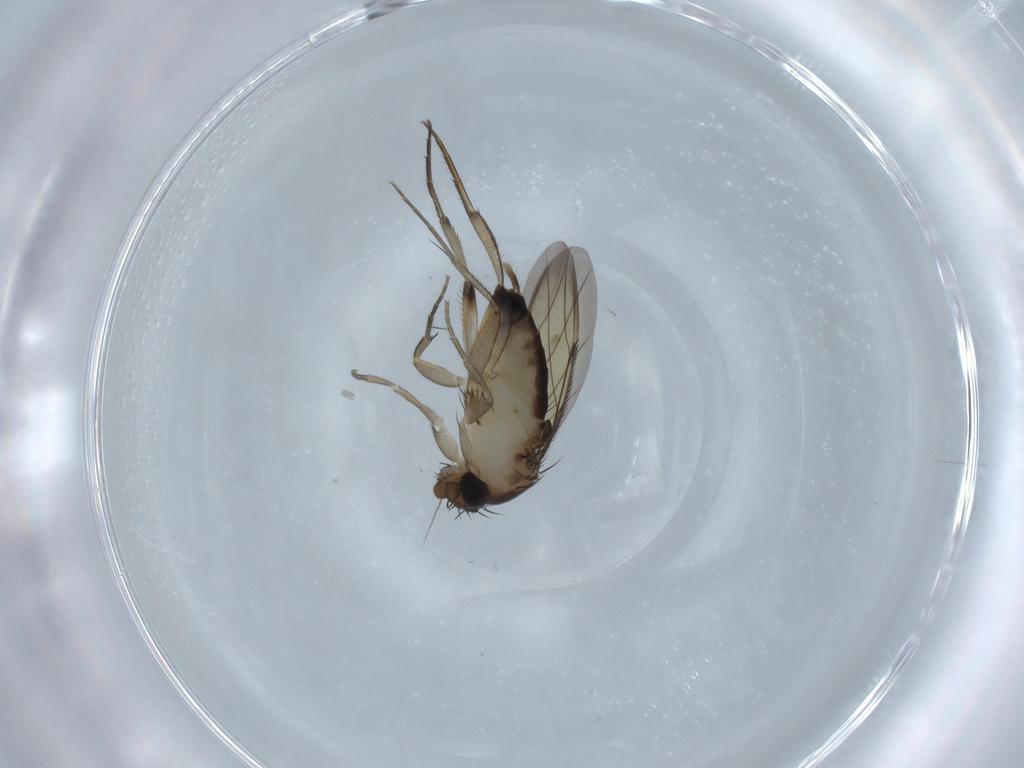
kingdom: Animalia
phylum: Arthropoda
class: Insecta
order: Diptera
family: Phoridae
